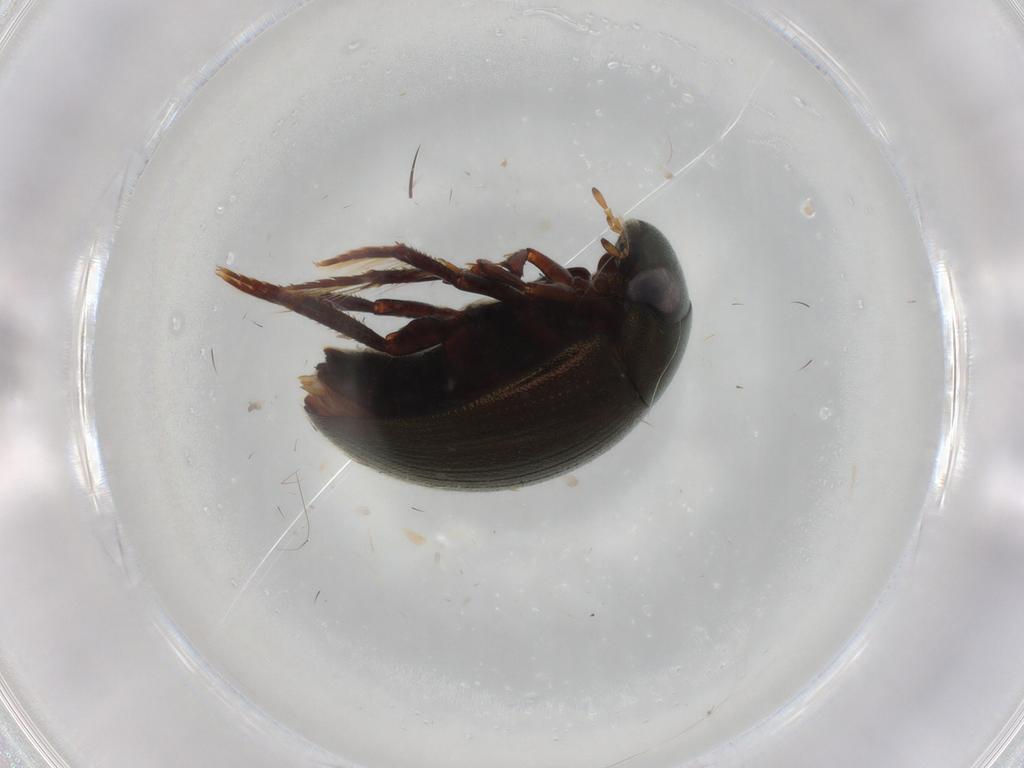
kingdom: Animalia
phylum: Arthropoda
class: Insecta
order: Coleoptera
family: Hydrophilidae
